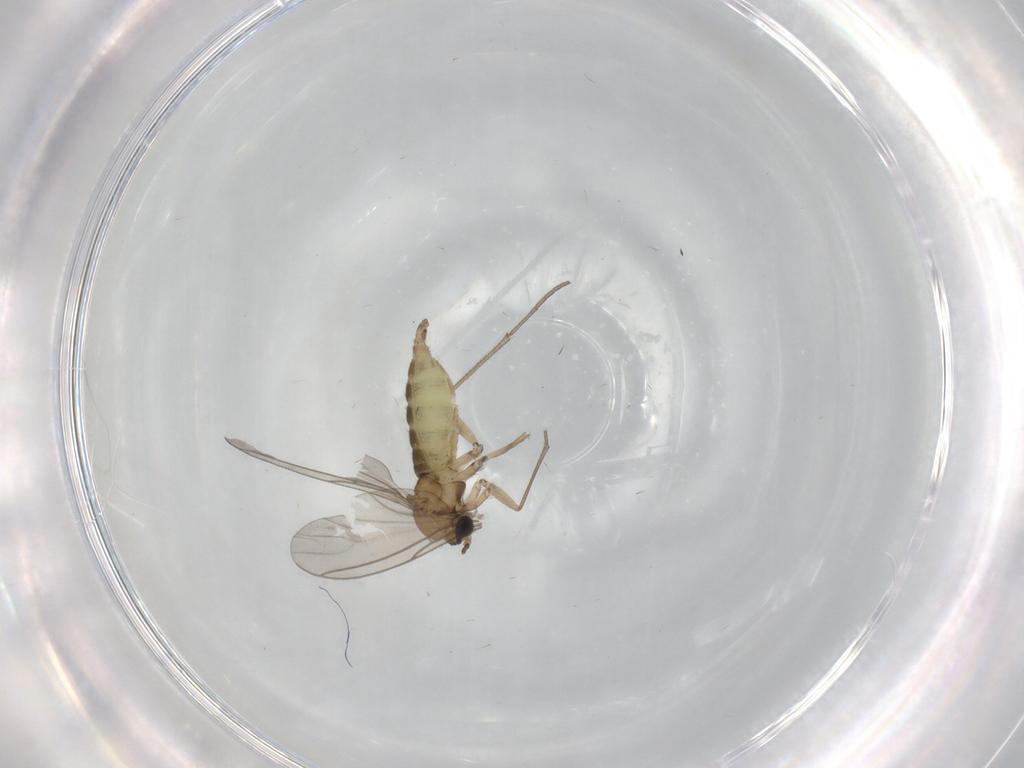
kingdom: Animalia
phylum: Arthropoda
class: Insecta
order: Diptera
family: Sciaridae
